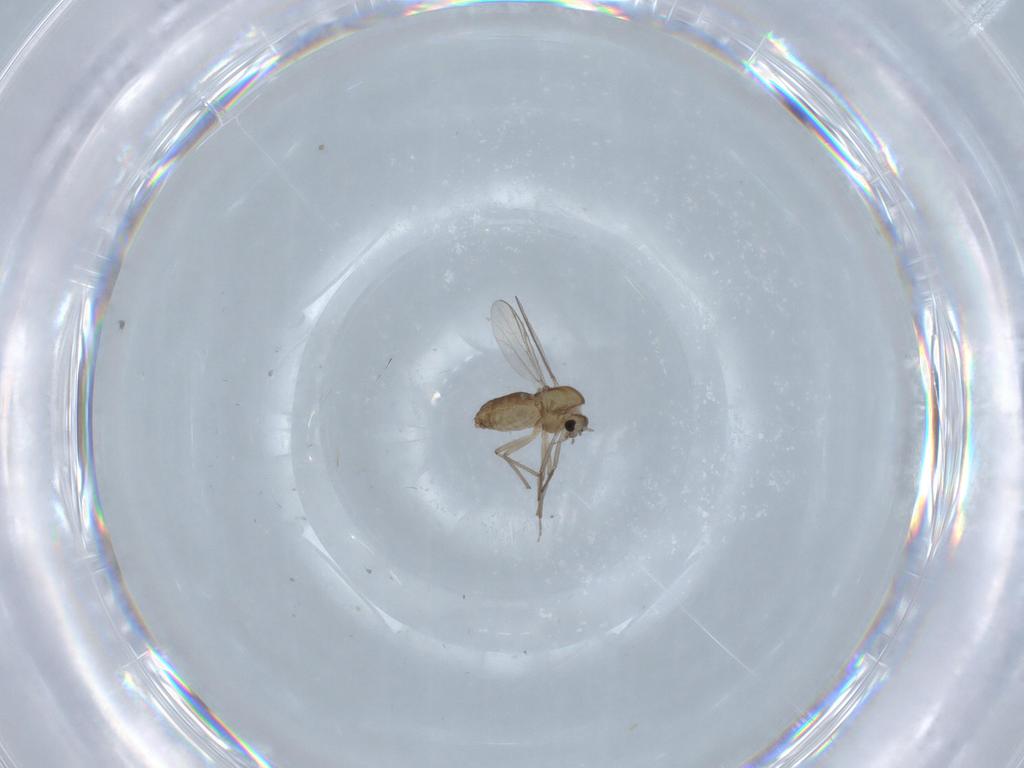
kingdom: Animalia
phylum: Arthropoda
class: Insecta
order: Diptera
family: Chironomidae
